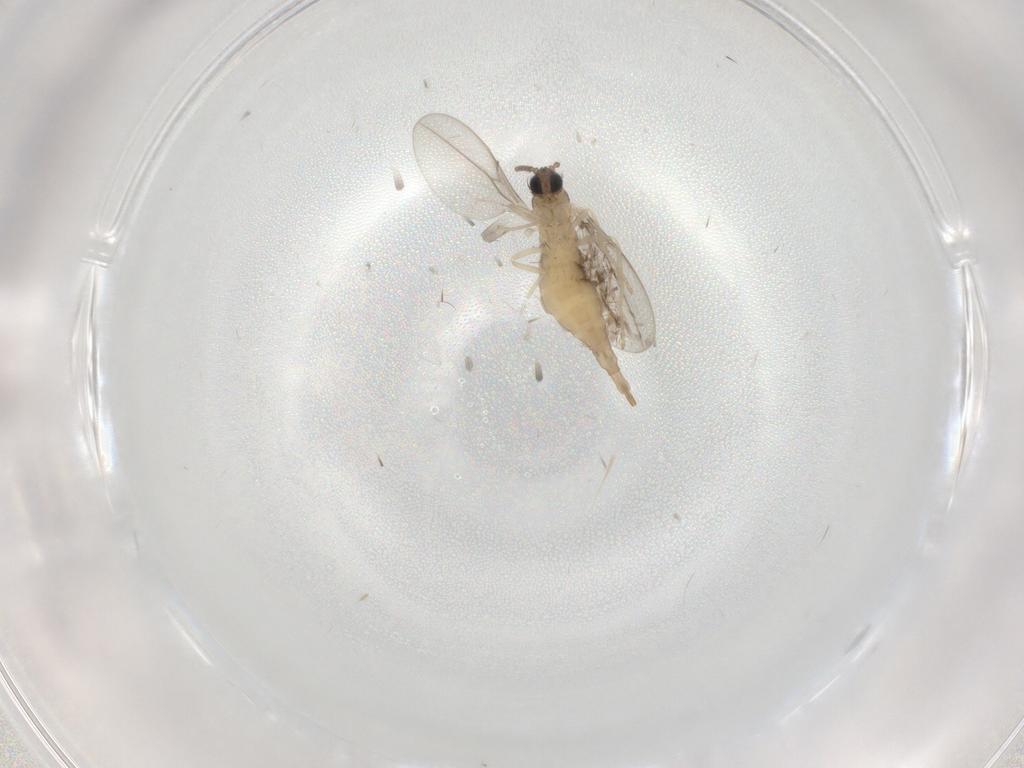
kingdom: Animalia
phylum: Arthropoda
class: Insecta
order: Diptera
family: Cecidomyiidae
